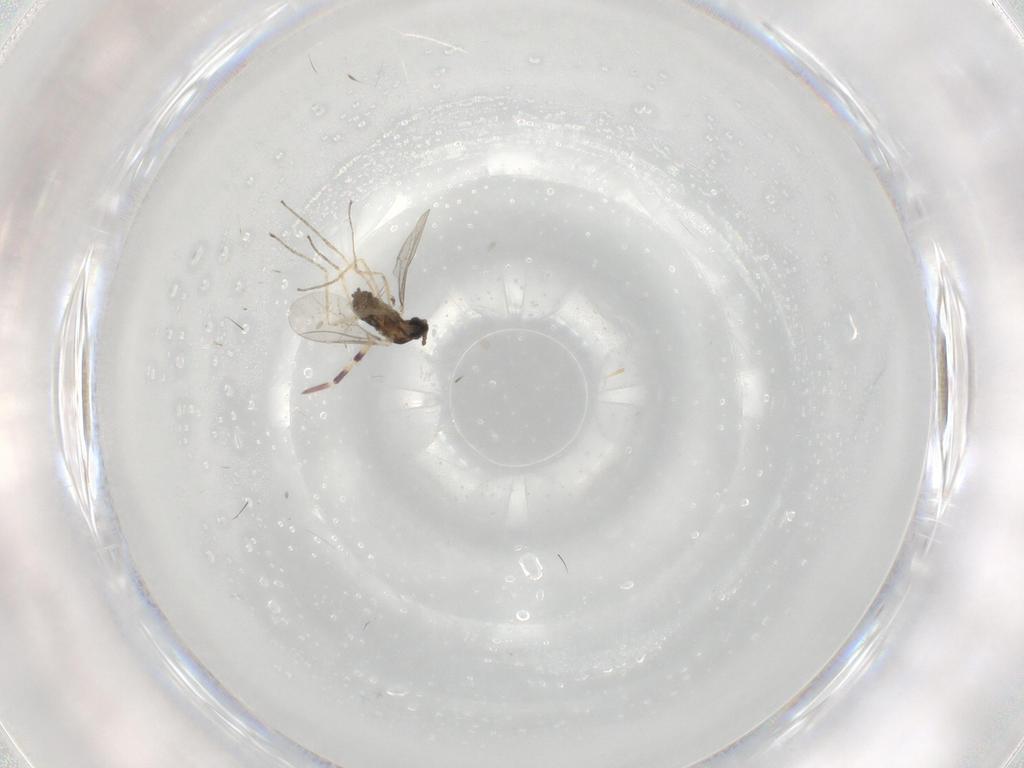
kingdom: Animalia
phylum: Arthropoda
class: Insecta
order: Diptera
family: Cecidomyiidae
